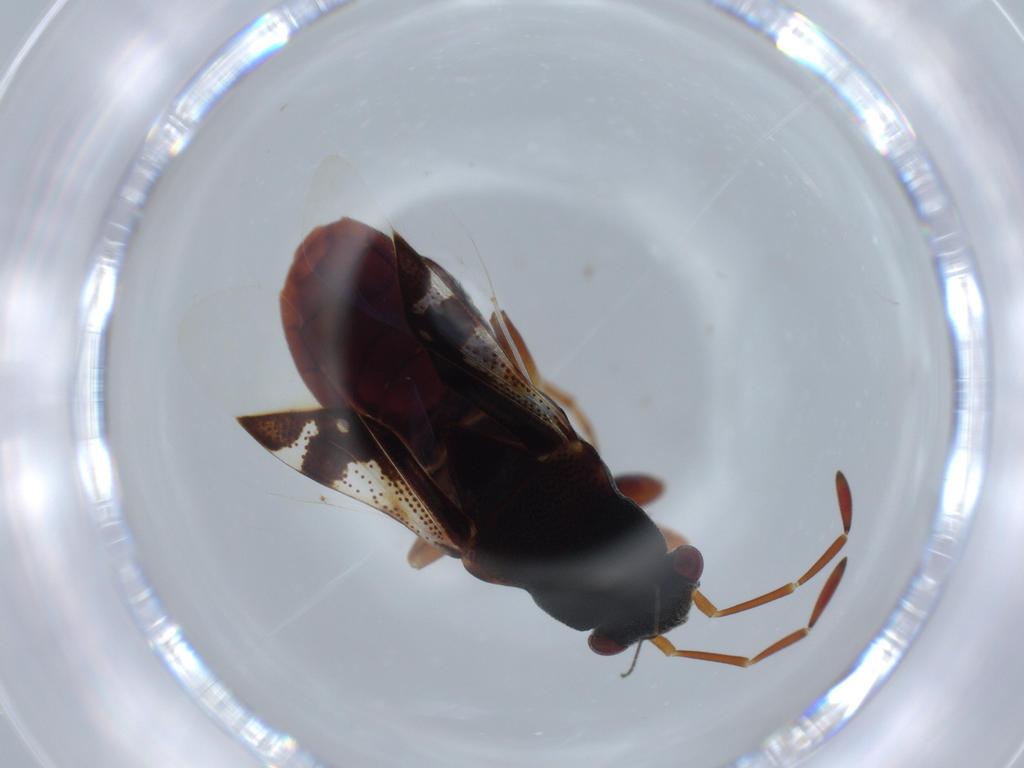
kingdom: Animalia
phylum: Arthropoda
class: Insecta
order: Hemiptera
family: Rhyparochromidae
